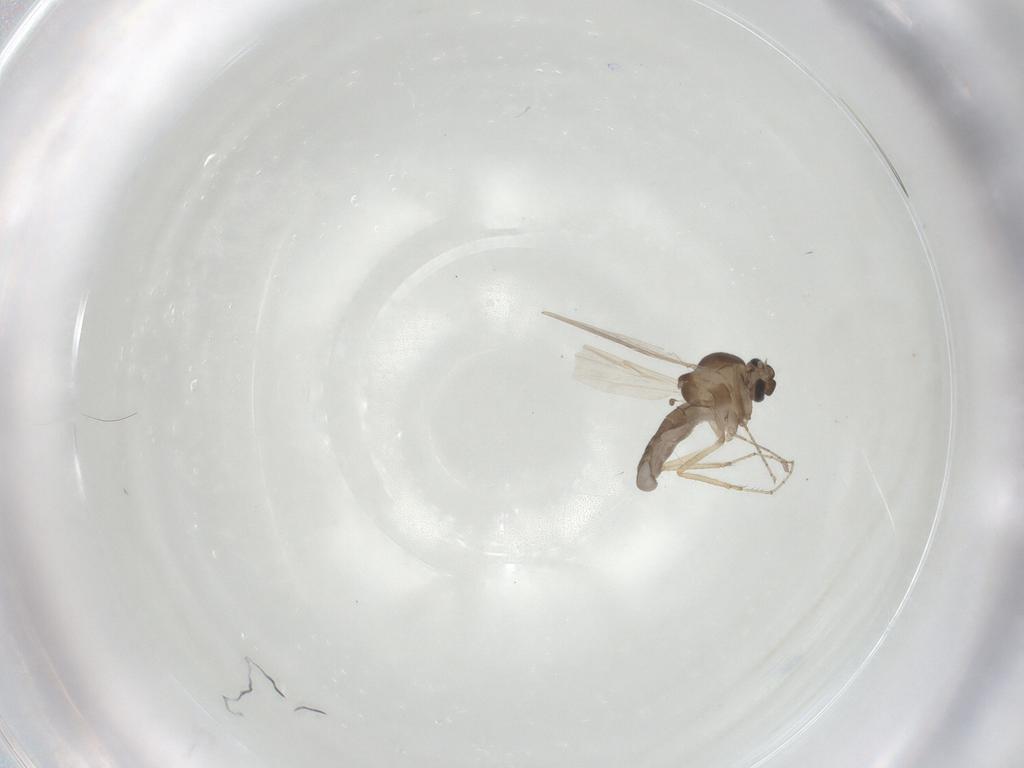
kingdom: Animalia
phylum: Arthropoda
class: Insecta
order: Diptera
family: Ceratopogonidae
